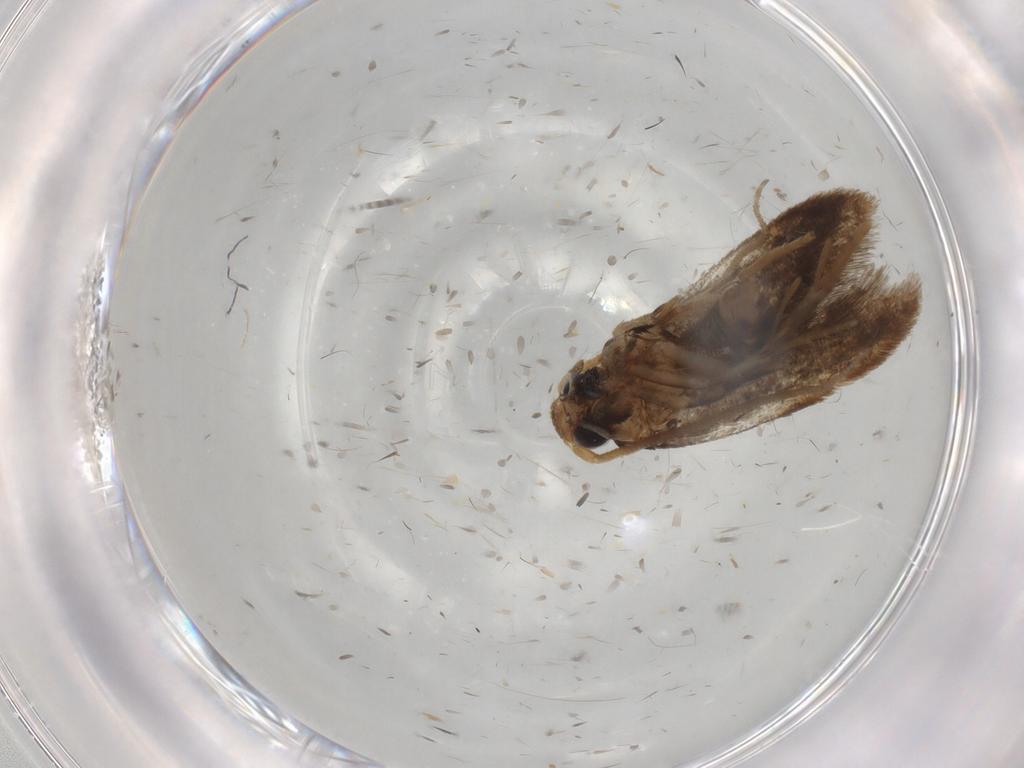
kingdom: Animalia
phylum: Arthropoda
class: Insecta
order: Lepidoptera
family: Coleophoridae
